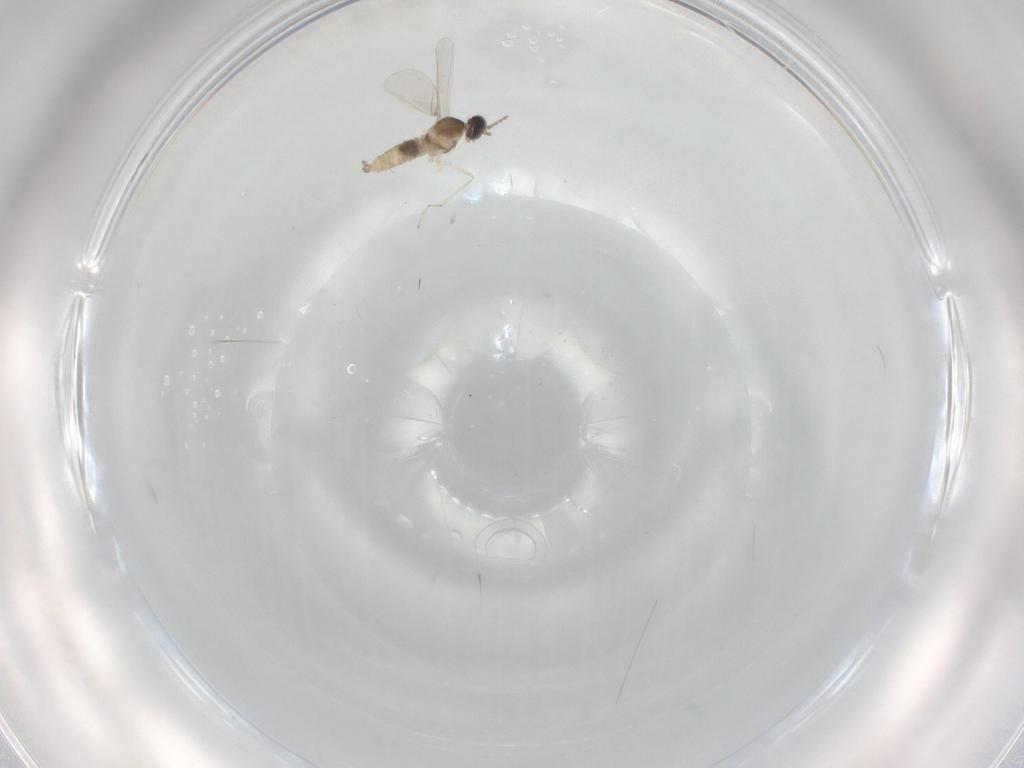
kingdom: Animalia
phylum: Arthropoda
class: Insecta
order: Diptera
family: Cecidomyiidae
